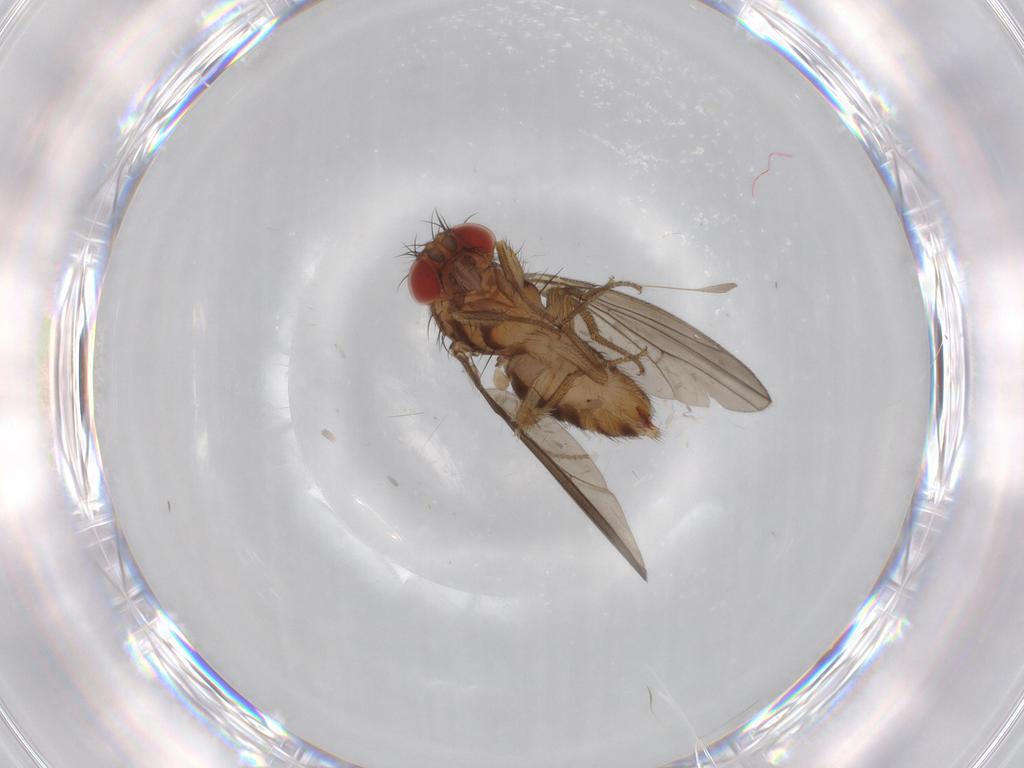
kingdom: Animalia
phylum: Arthropoda
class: Insecta
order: Diptera
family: Drosophilidae
